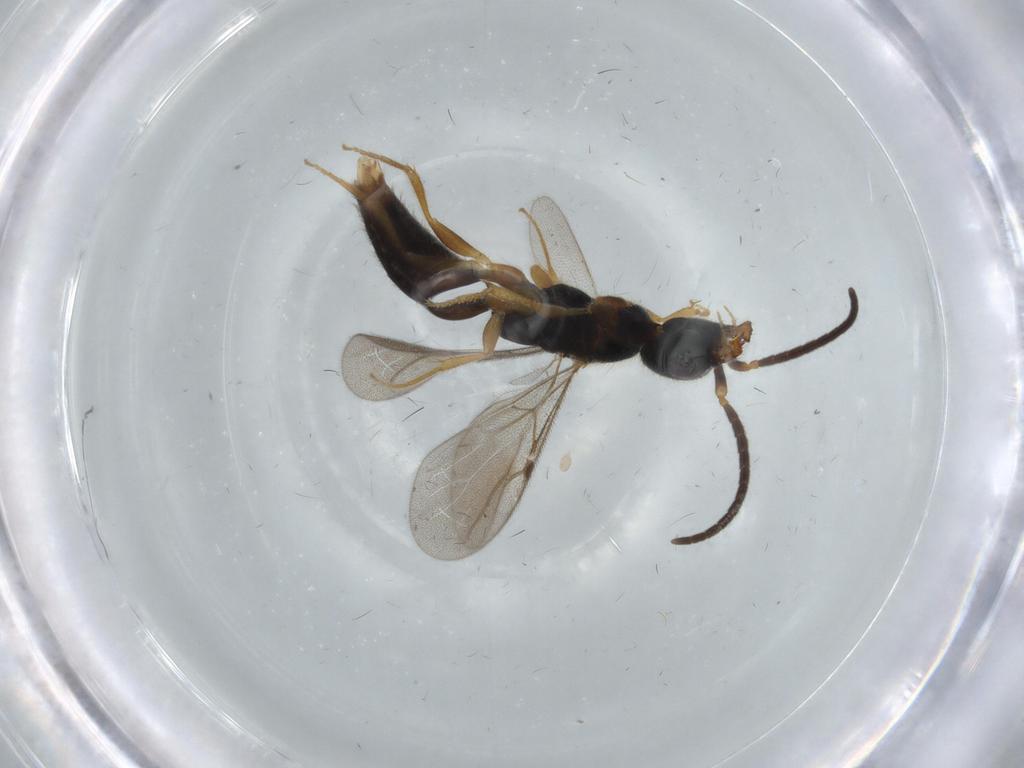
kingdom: Animalia
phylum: Arthropoda
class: Insecta
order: Hymenoptera
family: Bethylidae
